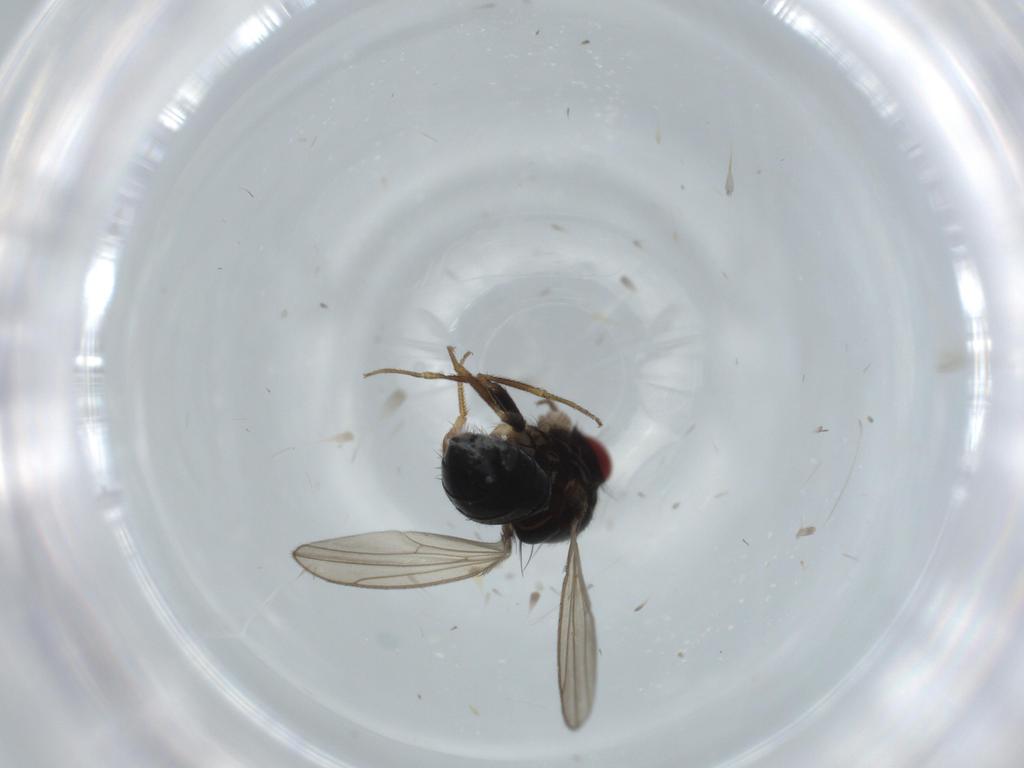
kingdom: Animalia
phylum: Arthropoda
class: Insecta
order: Diptera
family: Drosophilidae
